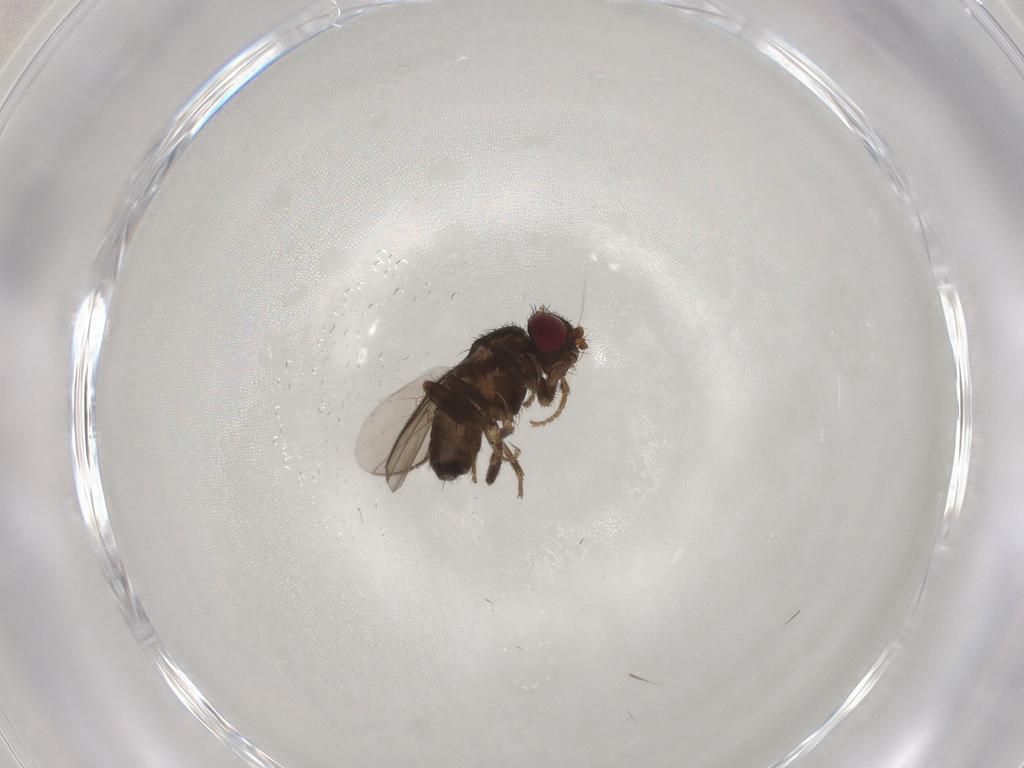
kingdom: Animalia
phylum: Arthropoda
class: Insecta
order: Diptera
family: Sphaeroceridae
